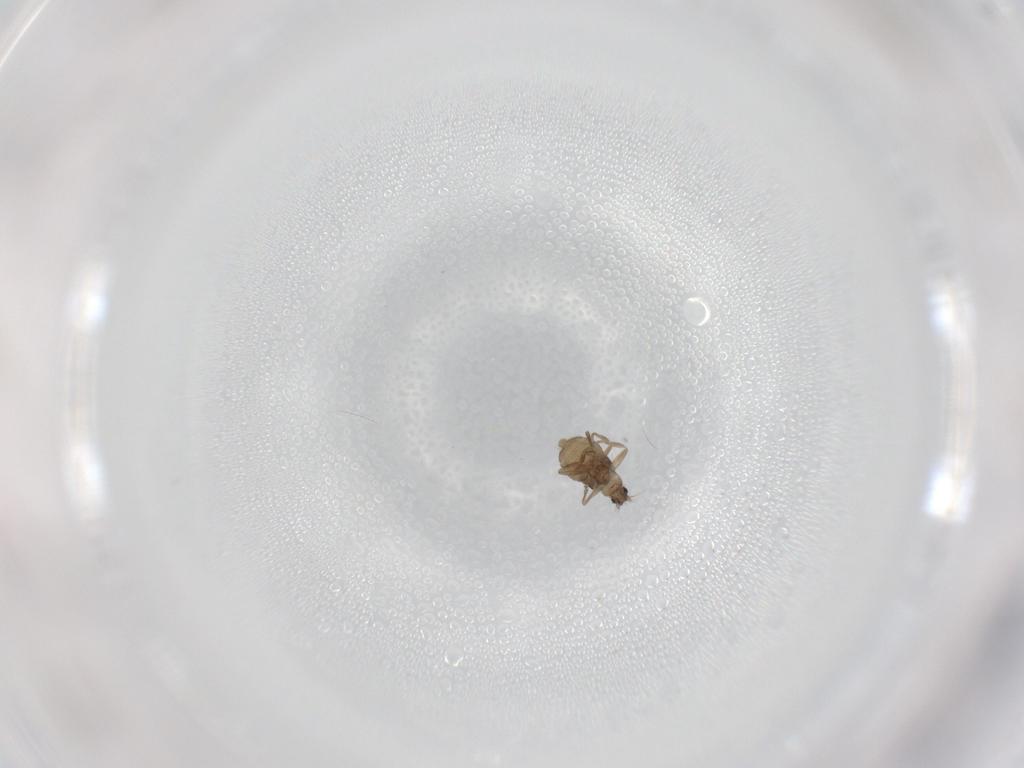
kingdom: Animalia
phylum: Arthropoda
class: Insecta
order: Diptera
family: Phoridae
